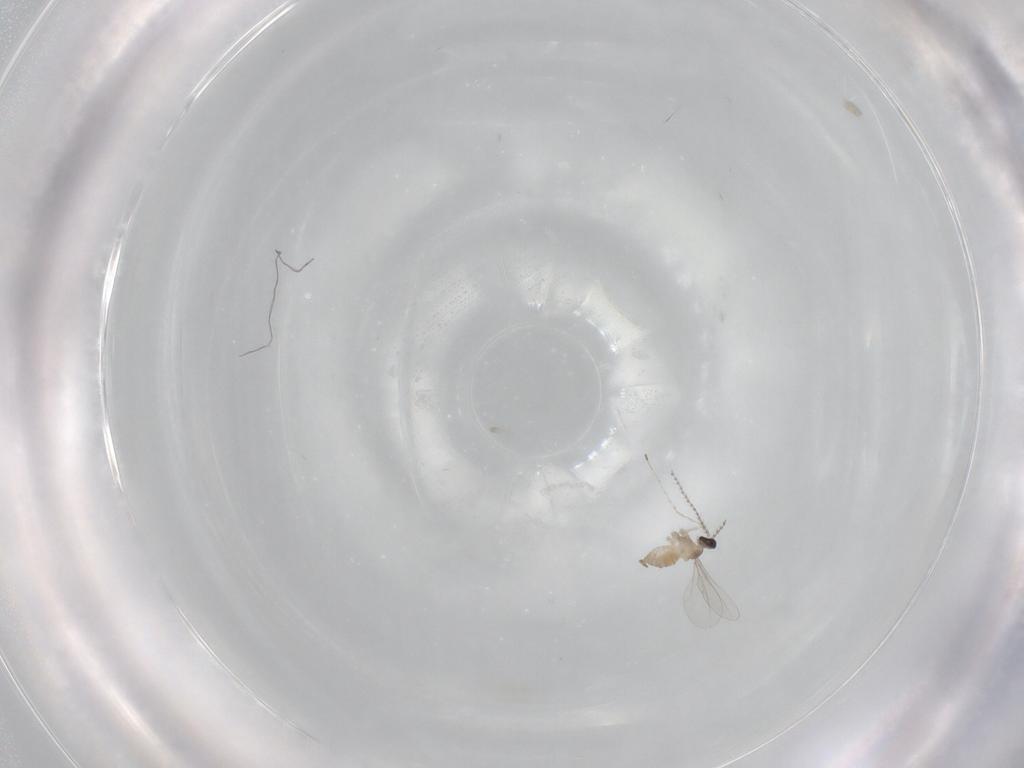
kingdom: Animalia
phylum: Arthropoda
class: Insecta
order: Diptera
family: Cecidomyiidae
